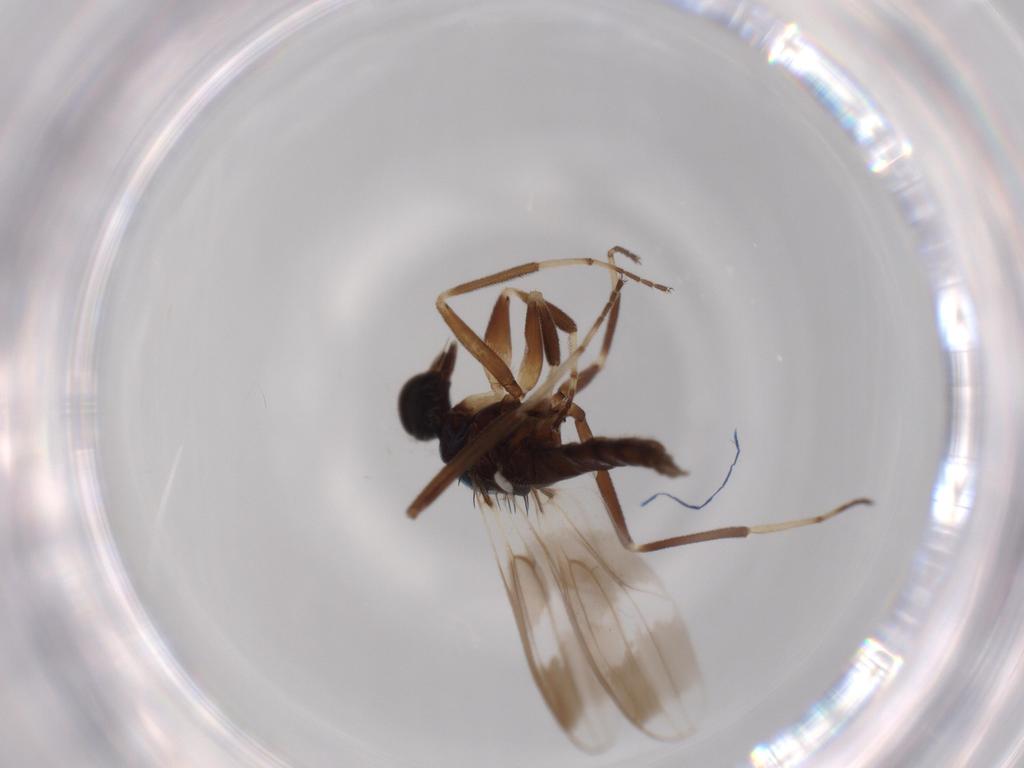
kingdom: Animalia
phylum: Arthropoda
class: Insecta
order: Diptera
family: Hybotidae
